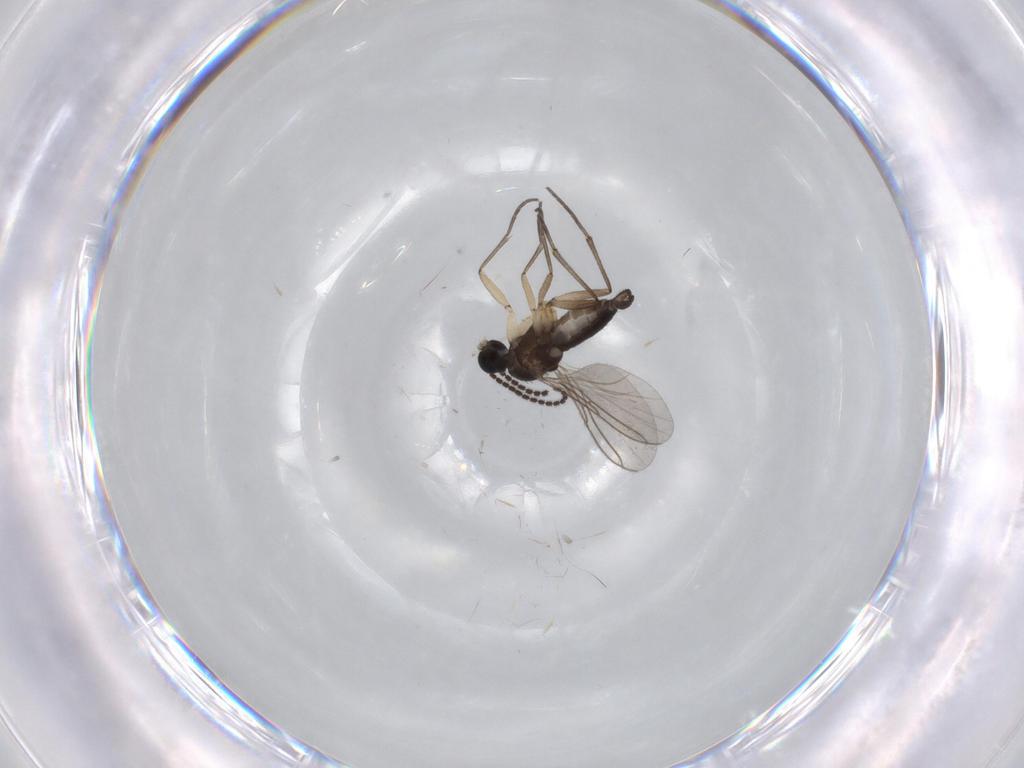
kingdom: Animalia
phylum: Arthropoda
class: Insecta
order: Diptera
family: Sciaridae
